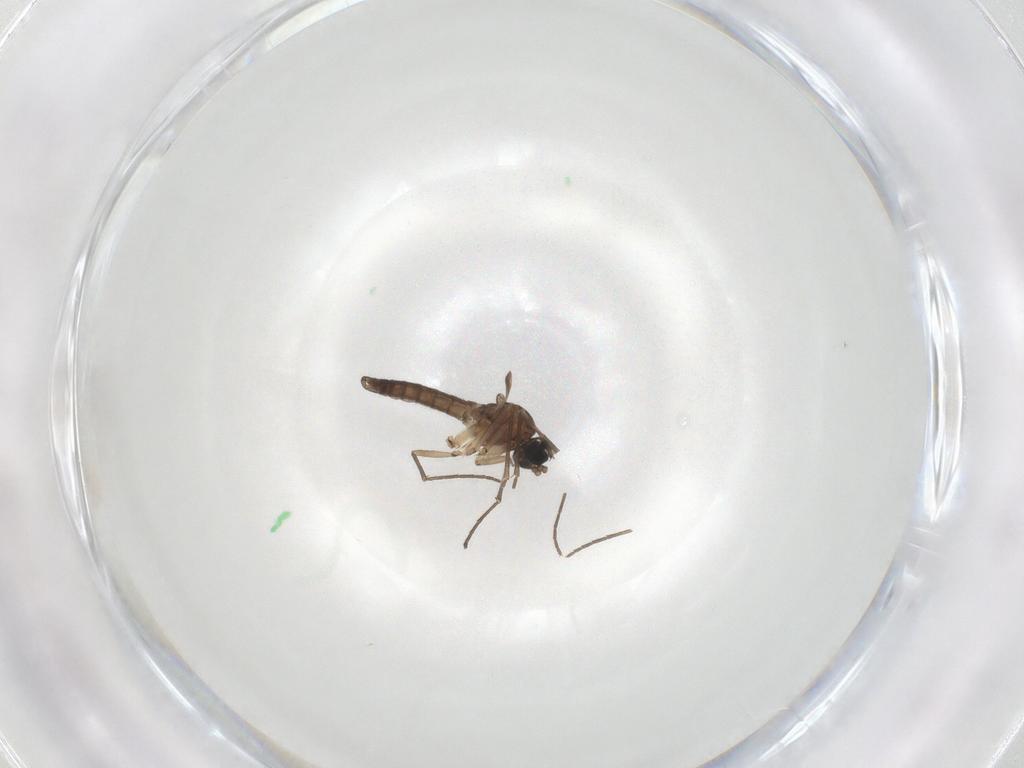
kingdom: Animalia
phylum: Arthropoda
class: Insecta
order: Diptera
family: Sciaridae
